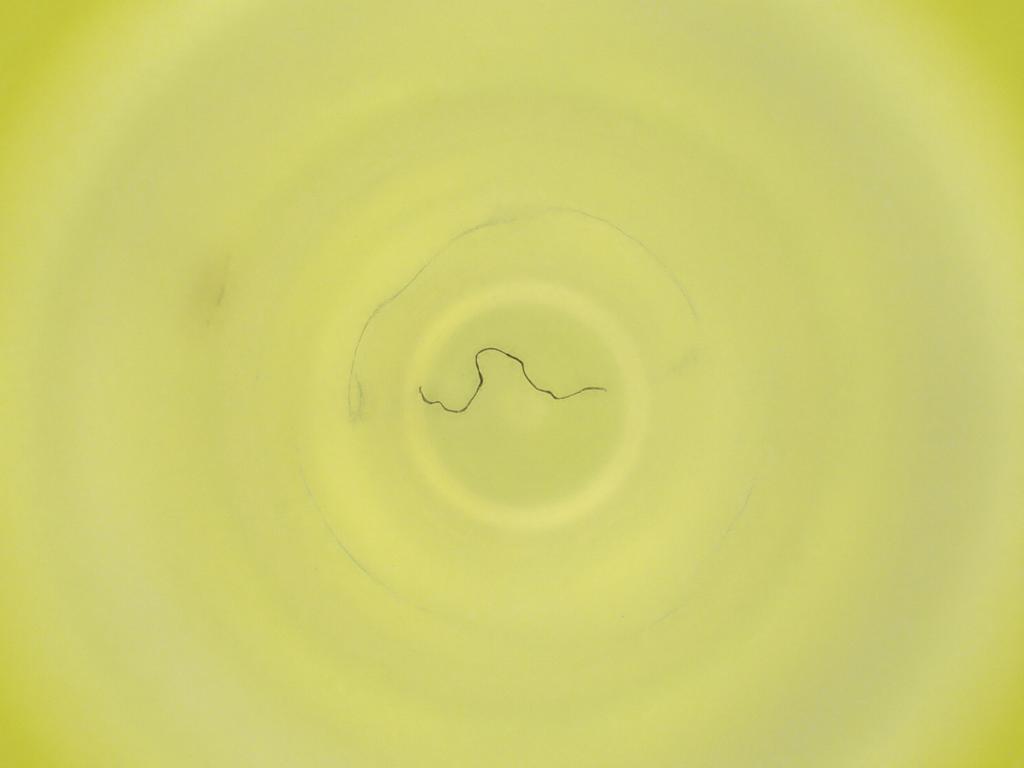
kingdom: Animalia
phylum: Arthropoda
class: Insecta
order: Diptera
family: Cecidomyiidae
